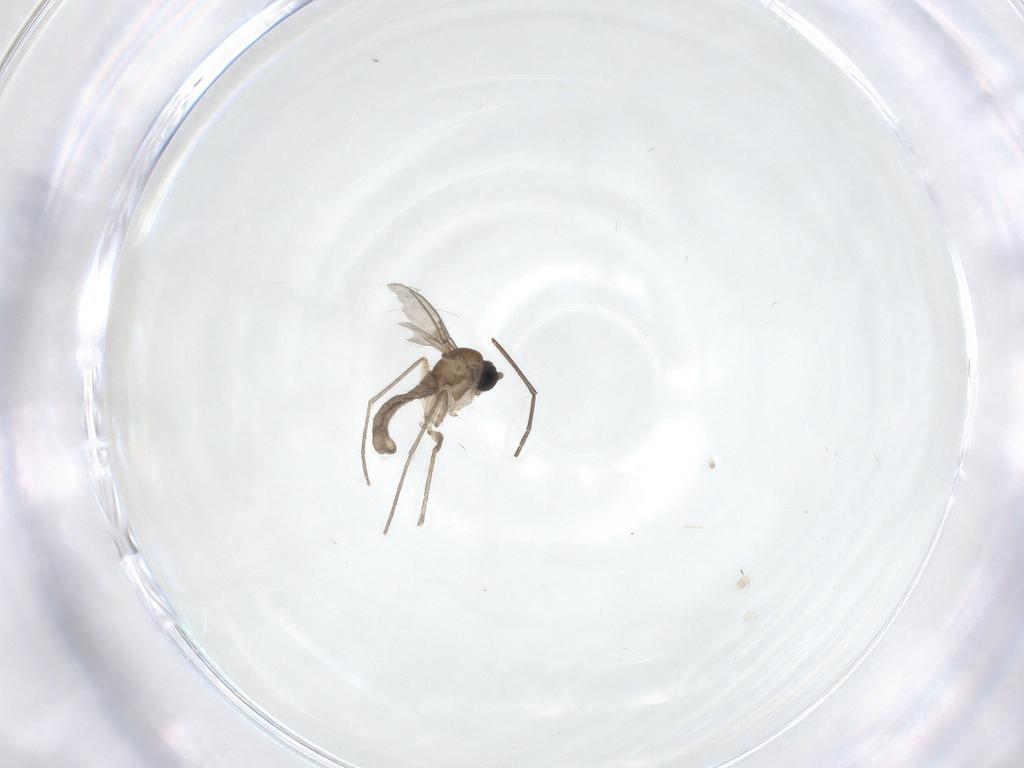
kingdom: Animalia
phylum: Arthropoda
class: Insecta
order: Diptera
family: Sciaridae
